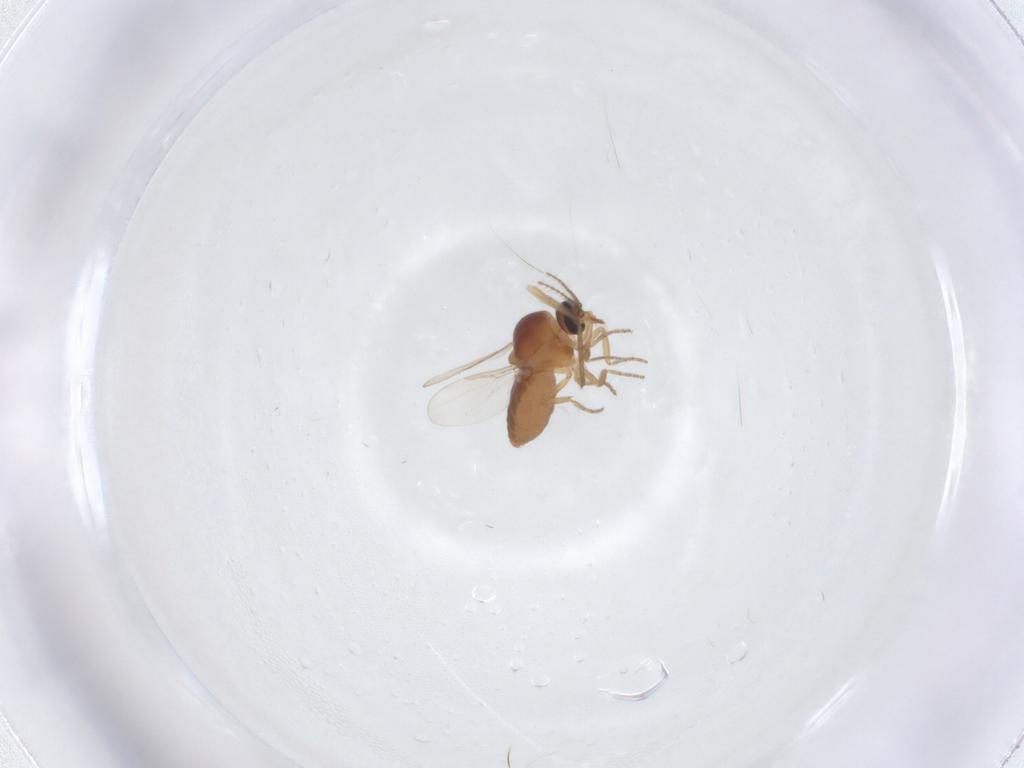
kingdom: Animalia
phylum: Arthropoda
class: Insecta
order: Diptera
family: Ceratopogonidae
